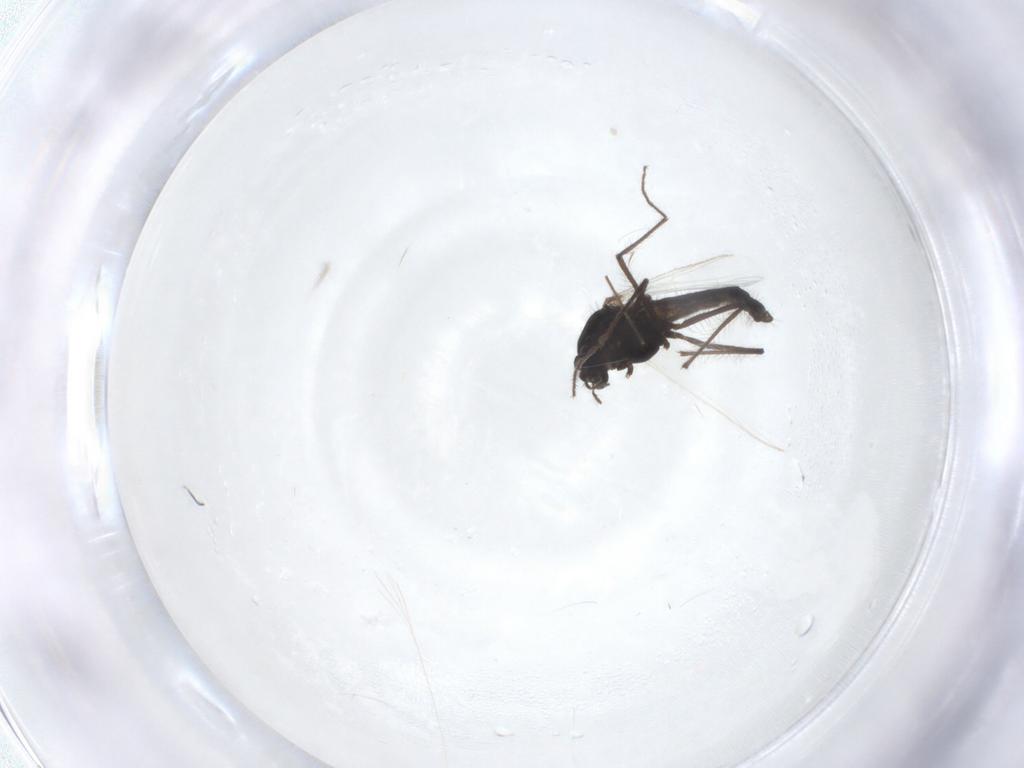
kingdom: Animalia
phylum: Arthropoda
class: Insecta
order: Diptera
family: Chironomidae
